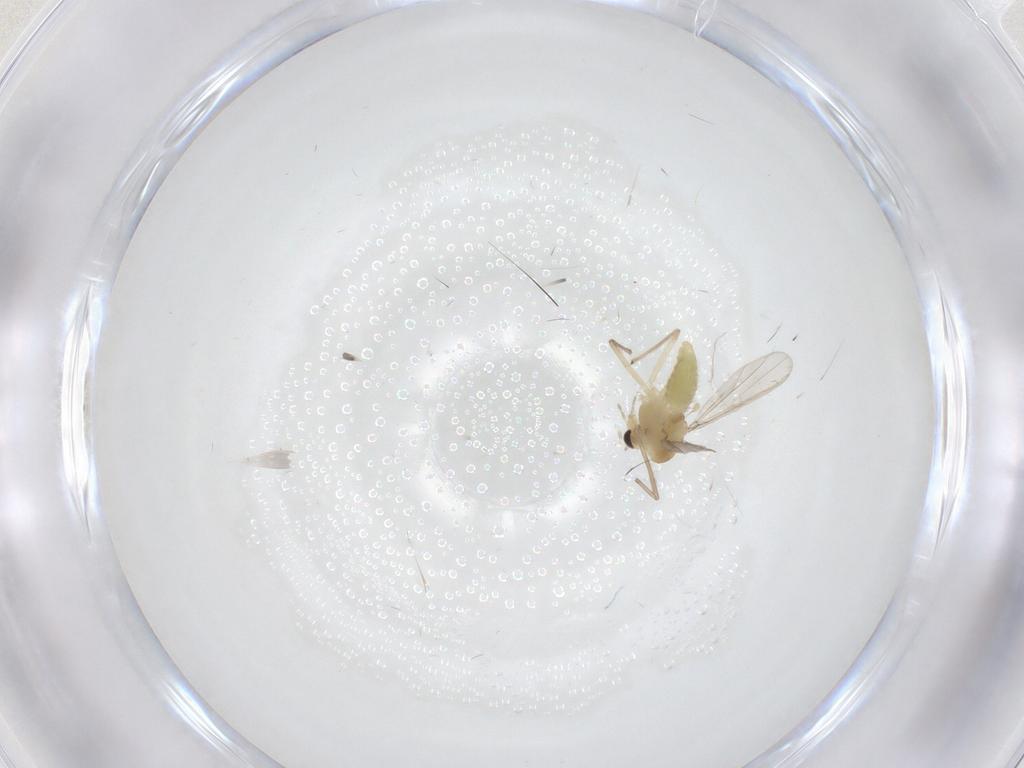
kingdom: Animalia
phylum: Arthropoda
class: Insecta
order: Diptera
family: Chironomidae
